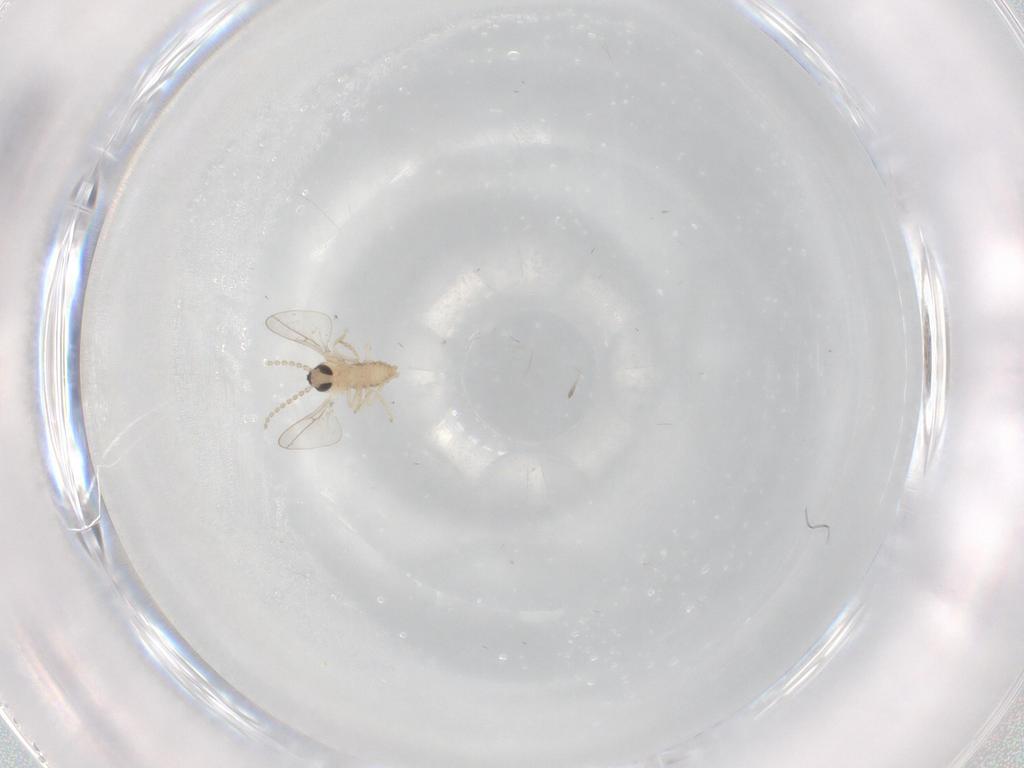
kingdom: Animalia
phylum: Arthropoda
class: Insecta
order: Diptera
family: Cecidomyiidae
